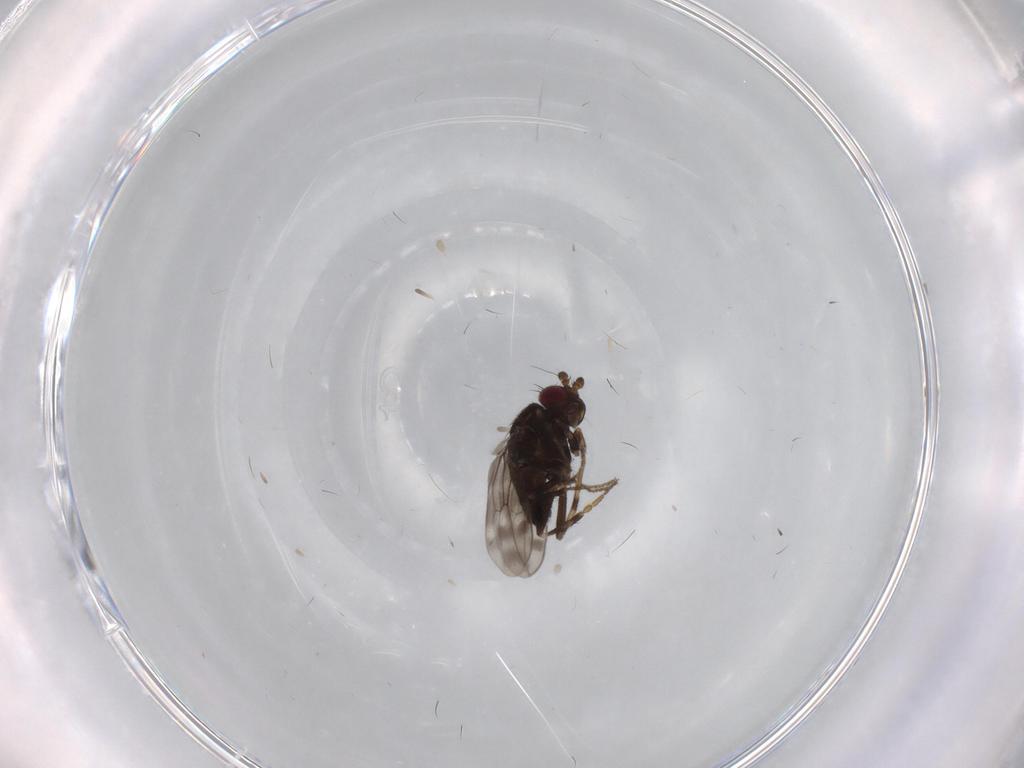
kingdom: Animalia
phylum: Arthropoda
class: Insecta
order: Diptera
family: Sphaeroceridae
